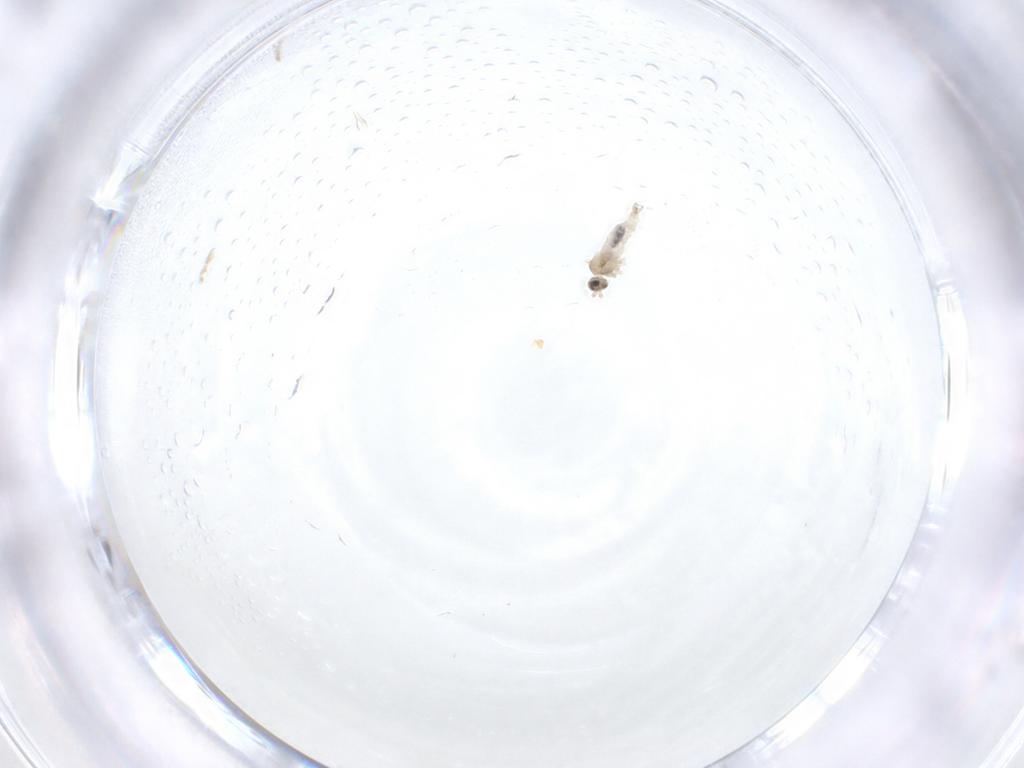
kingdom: Animalia
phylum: Arthropoda
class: Insecta
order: Diptera
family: Cecidomyiidae
